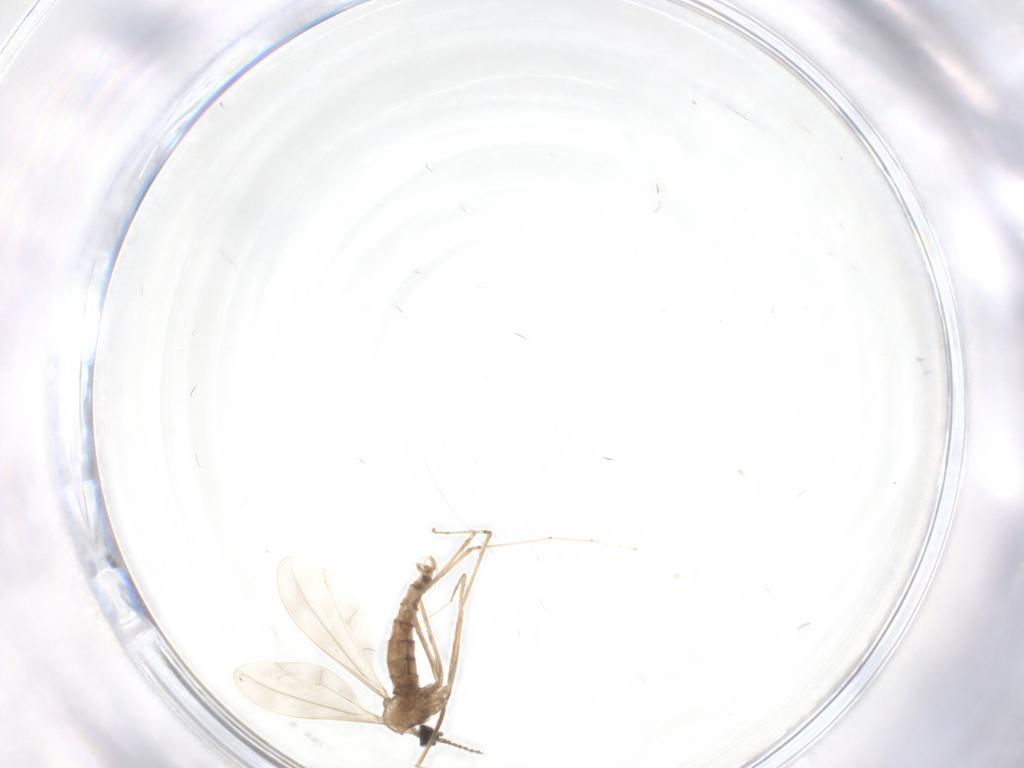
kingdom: Animalia
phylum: Arthropoda
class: Insecta
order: Diptera
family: Cecidomyiidae
